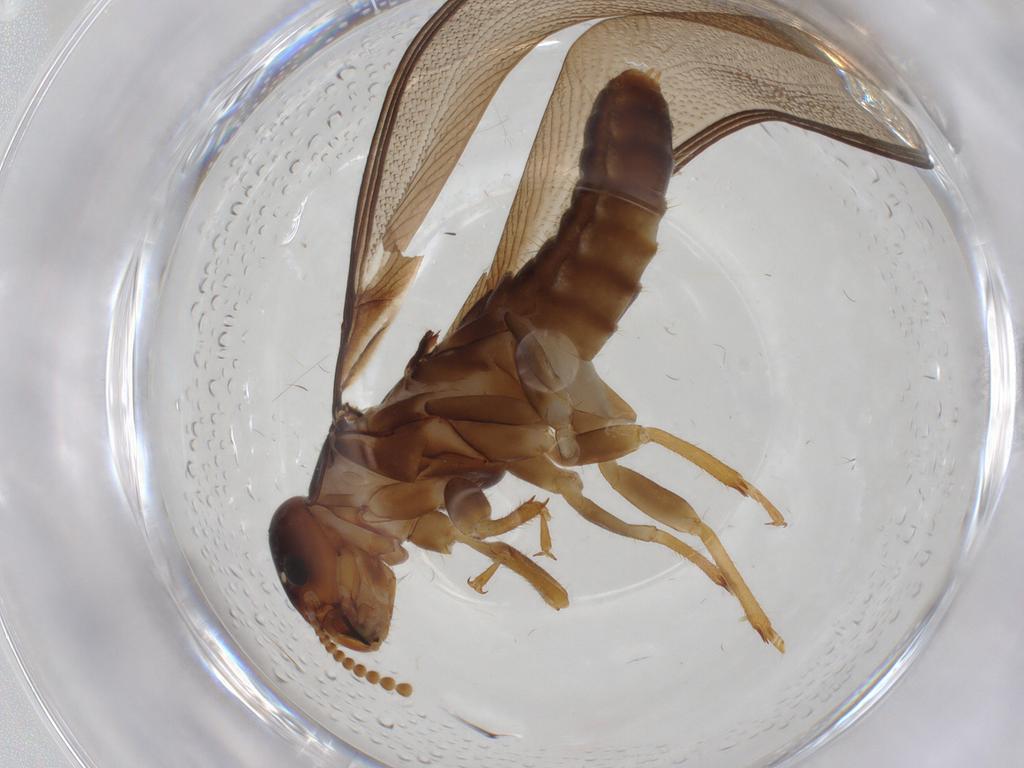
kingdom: Animalia
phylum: Arthropoda
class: Insecta
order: Blattodea
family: Kalotermitidae
